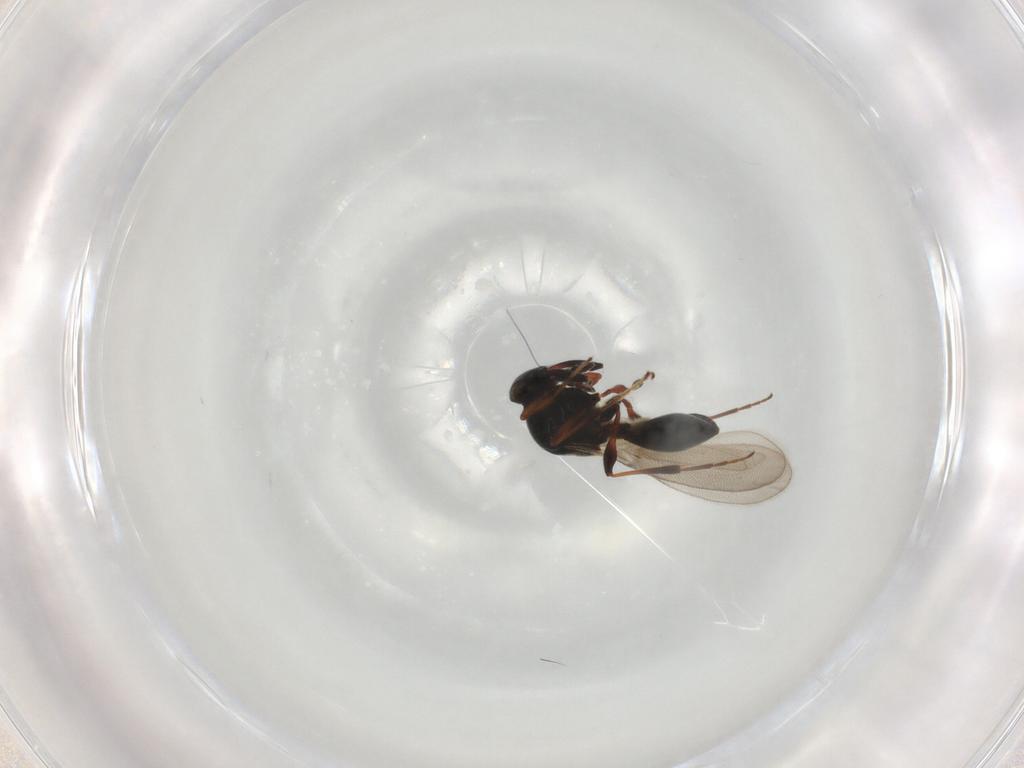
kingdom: Animalia
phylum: Arthropoda
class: Insecta
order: Hymenoptera
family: Platygastridae
